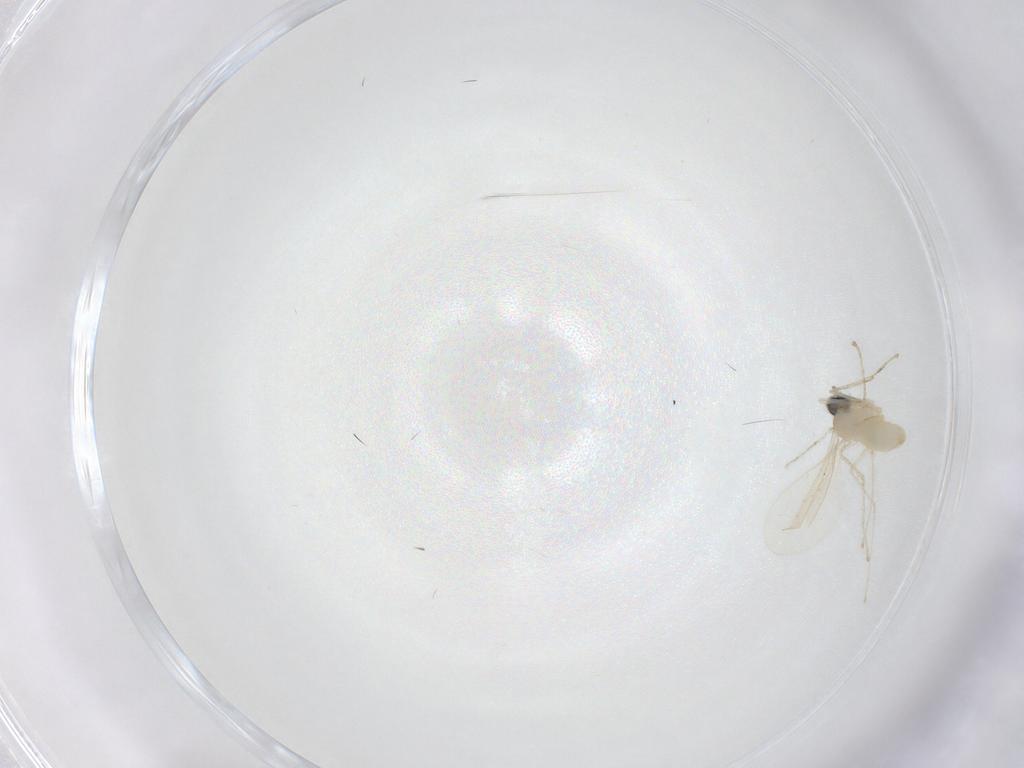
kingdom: Animalia
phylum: Arthropoda
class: Insecta
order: Diptera
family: Cecidomyiidae
